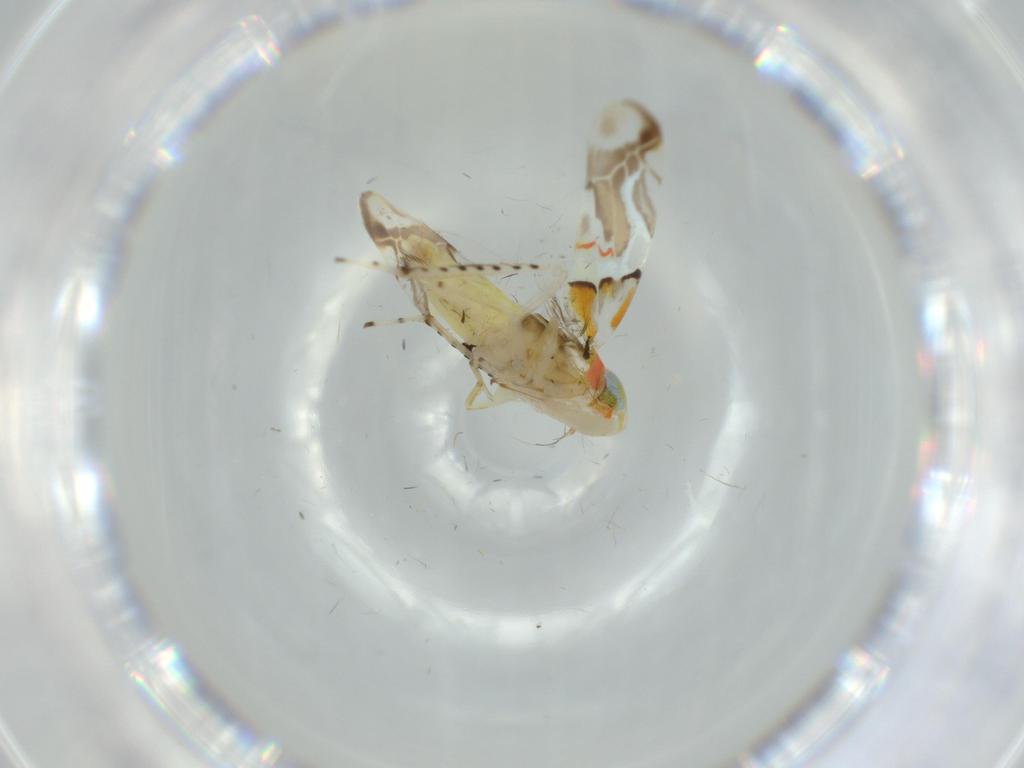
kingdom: Animalia
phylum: Arthropoda
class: Insecta
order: Hemiptera
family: Cicadellidae
